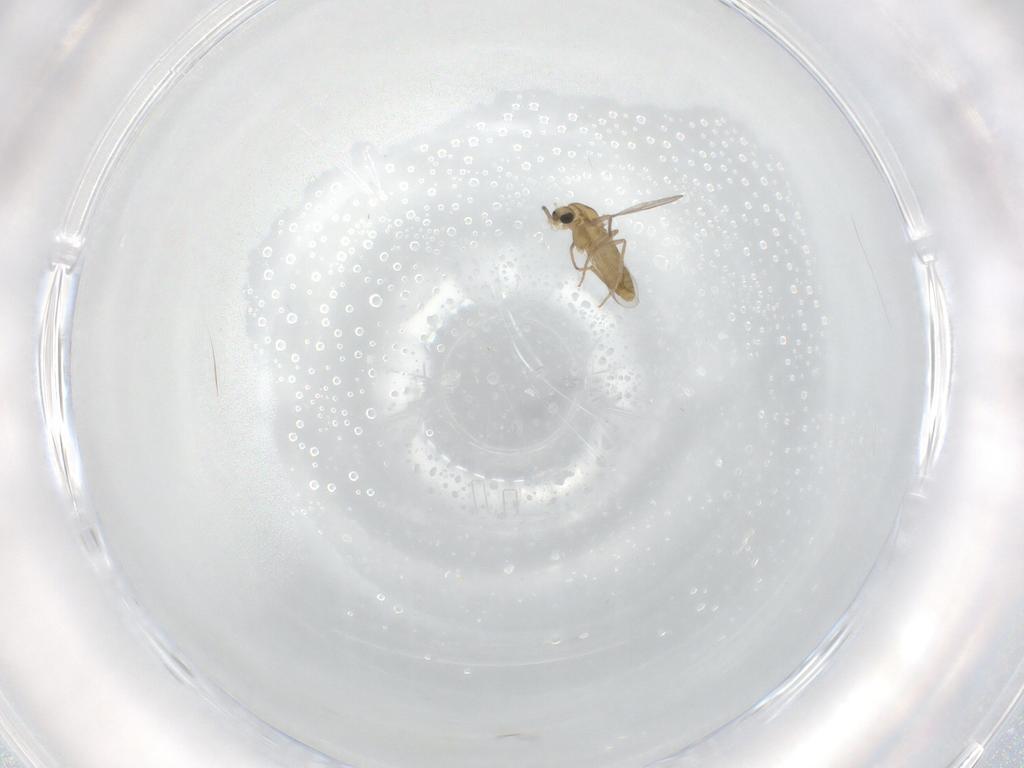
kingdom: Animalia
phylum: Arthropoda
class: Insecta
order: Diptera
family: Chironomidae
